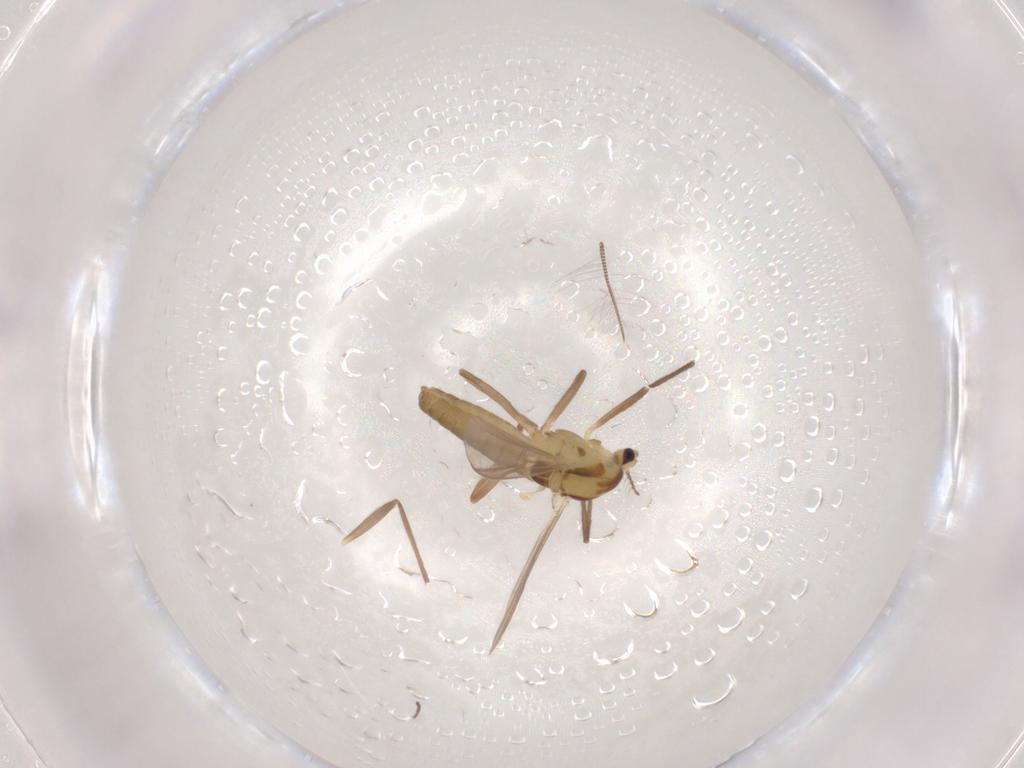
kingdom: Animalia
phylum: Arthropoda
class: Insecta
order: Diptera
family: Chironomidae
